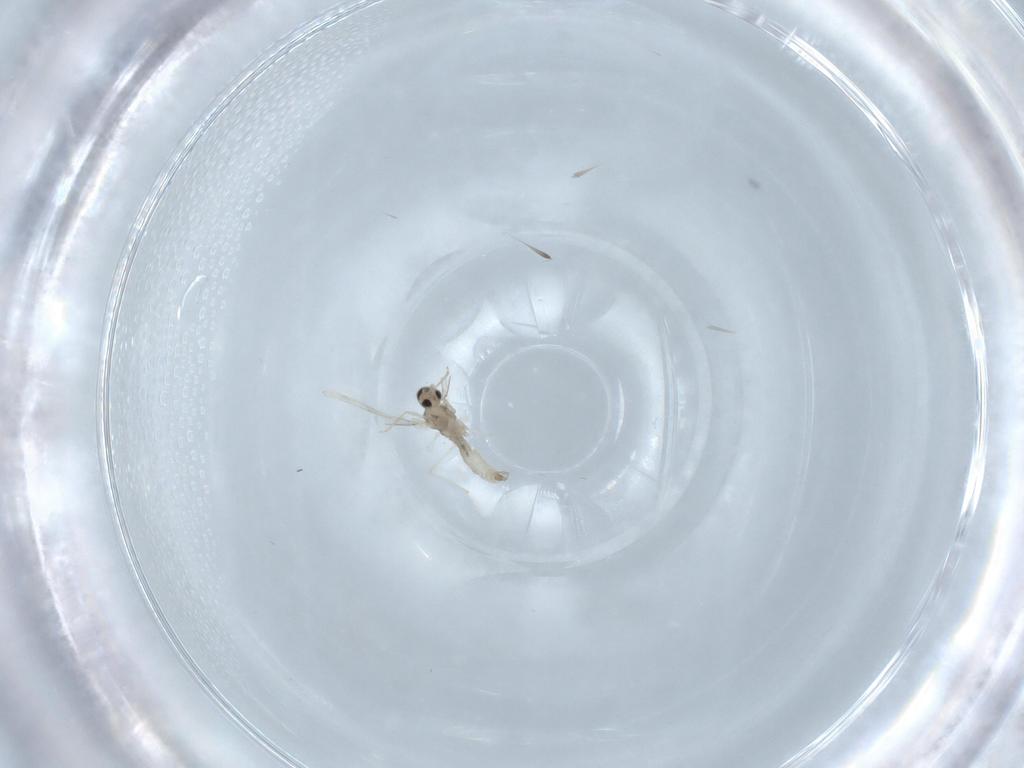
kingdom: Animalia
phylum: Arthropoda
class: Insecta
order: Diptera
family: Cecidomyiidae
